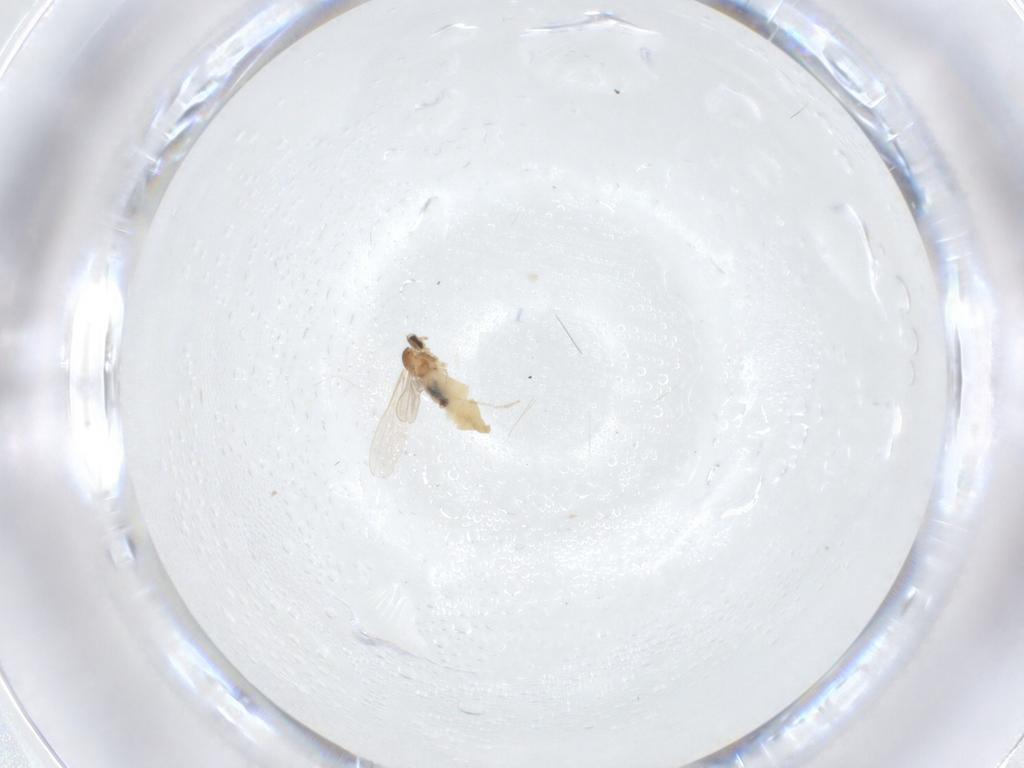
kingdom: Animalia
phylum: Arthropoda
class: Insecta
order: Diptera
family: Cecidomyiidae
